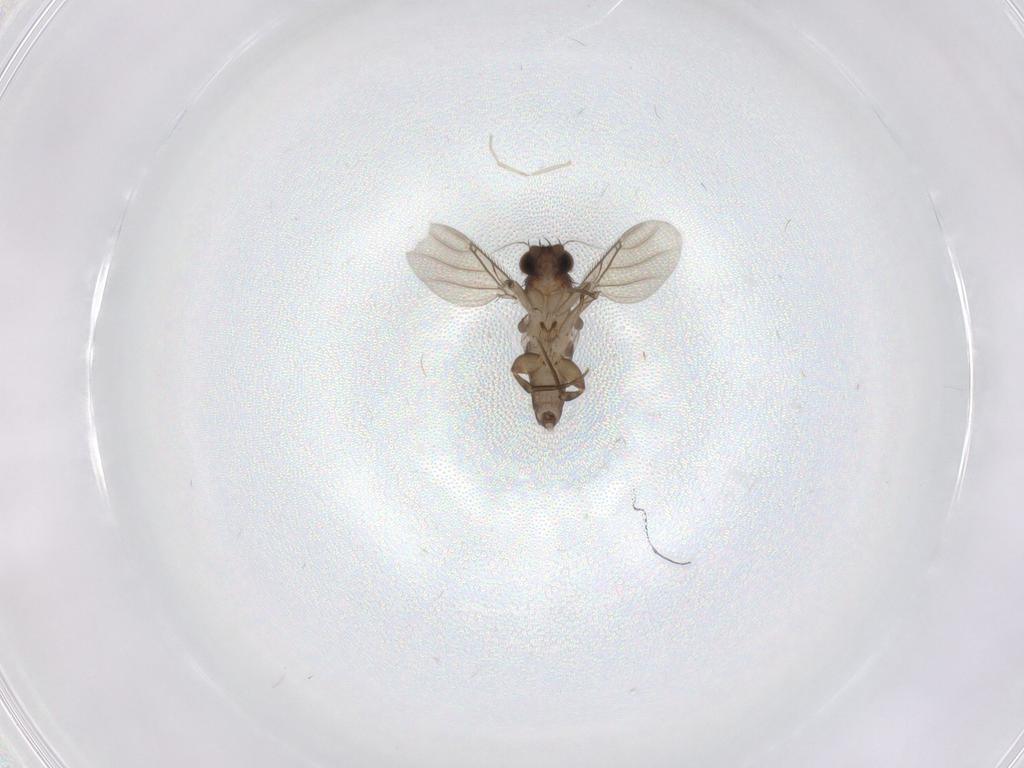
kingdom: Animalia
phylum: Arthropoda
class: Insecta
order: Diptera
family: Phoridae
